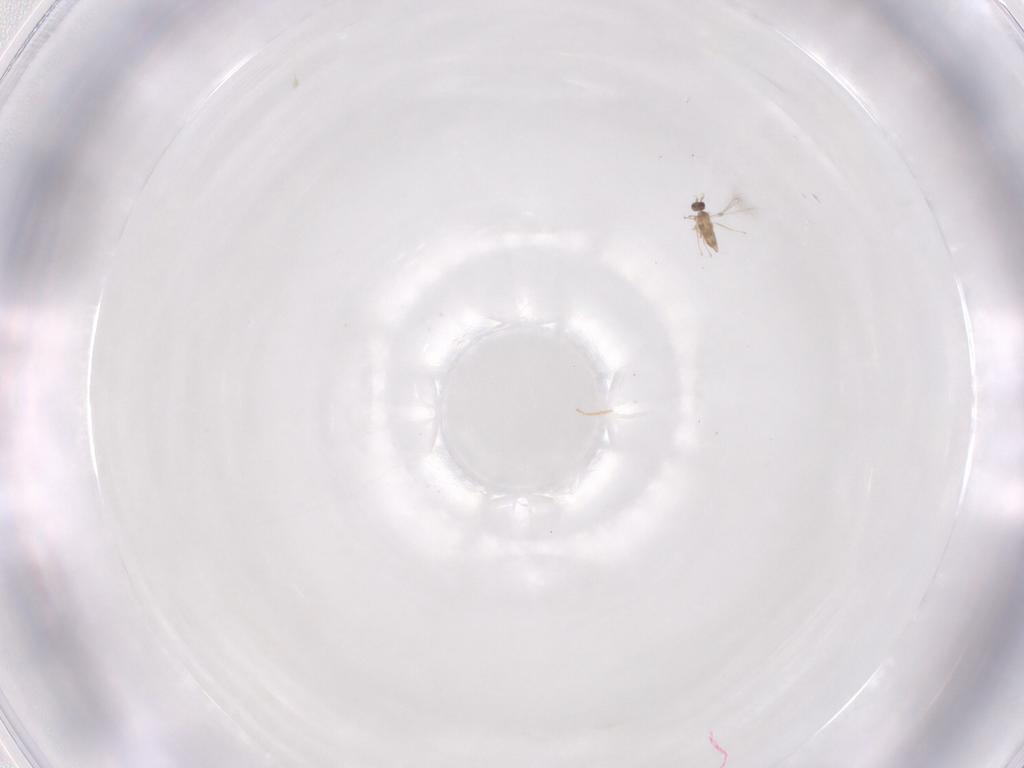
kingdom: Animalia
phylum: Arthropoda
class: Insecta
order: Hymenoptera
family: Mymaridae
